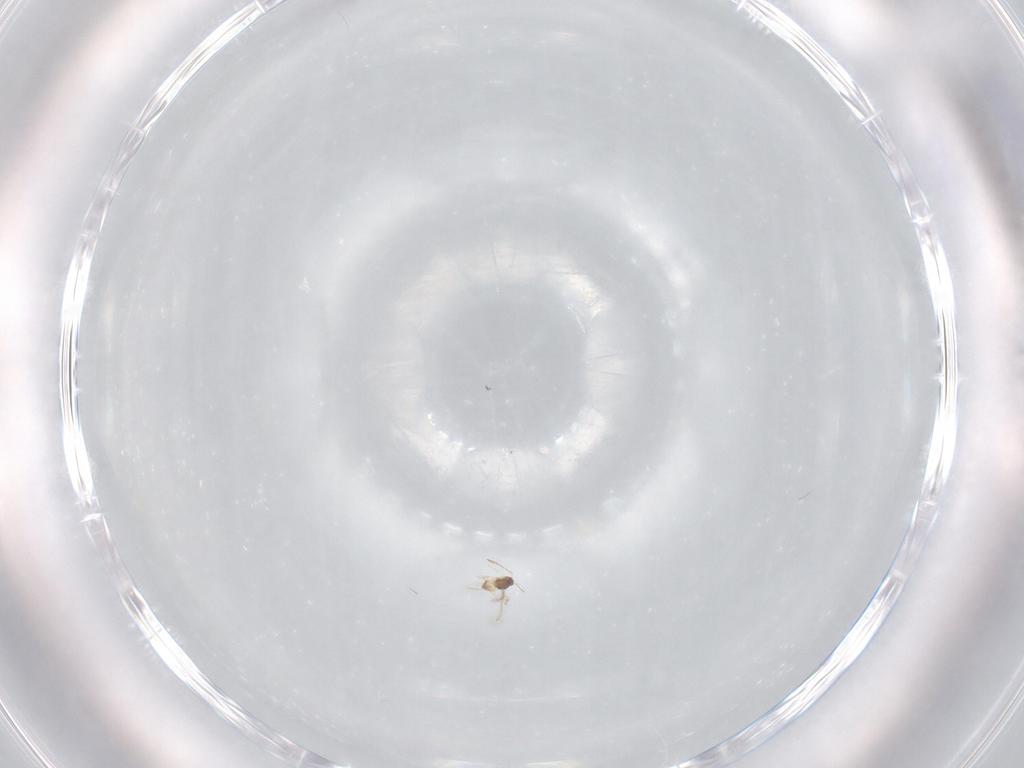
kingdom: Animalia
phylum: Arthropoda
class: Insecta
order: Hymenoptera
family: Mymaridae
